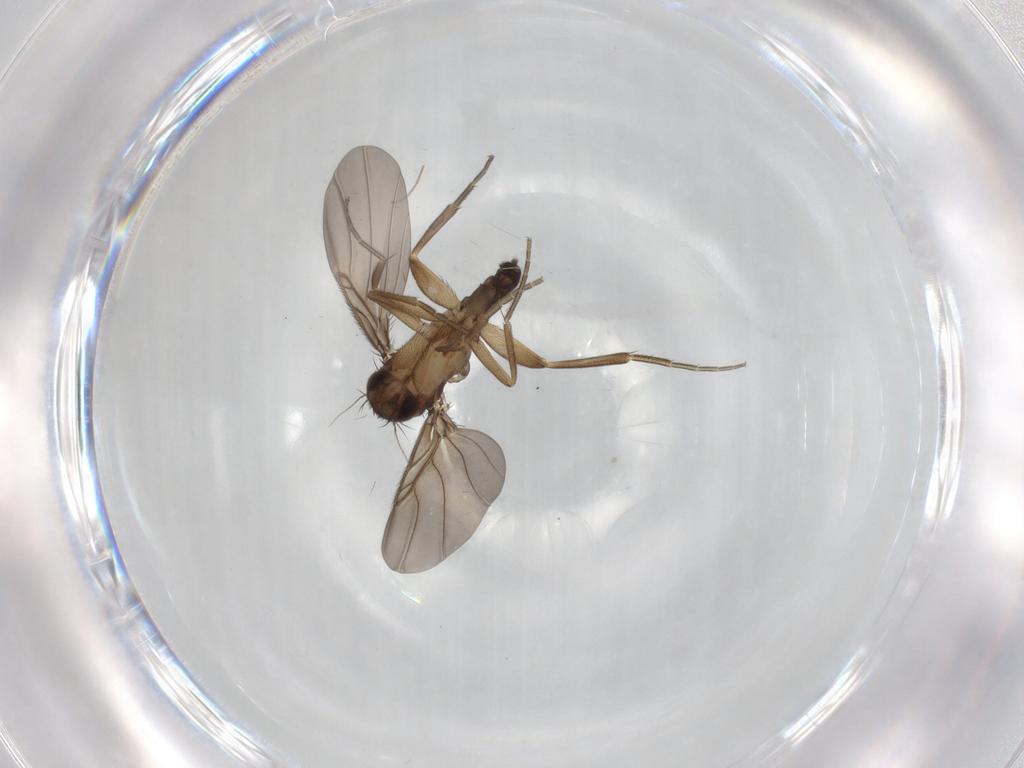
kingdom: Animalia
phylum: Arthropoda
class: Insecta
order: Diptera
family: Phoridae
